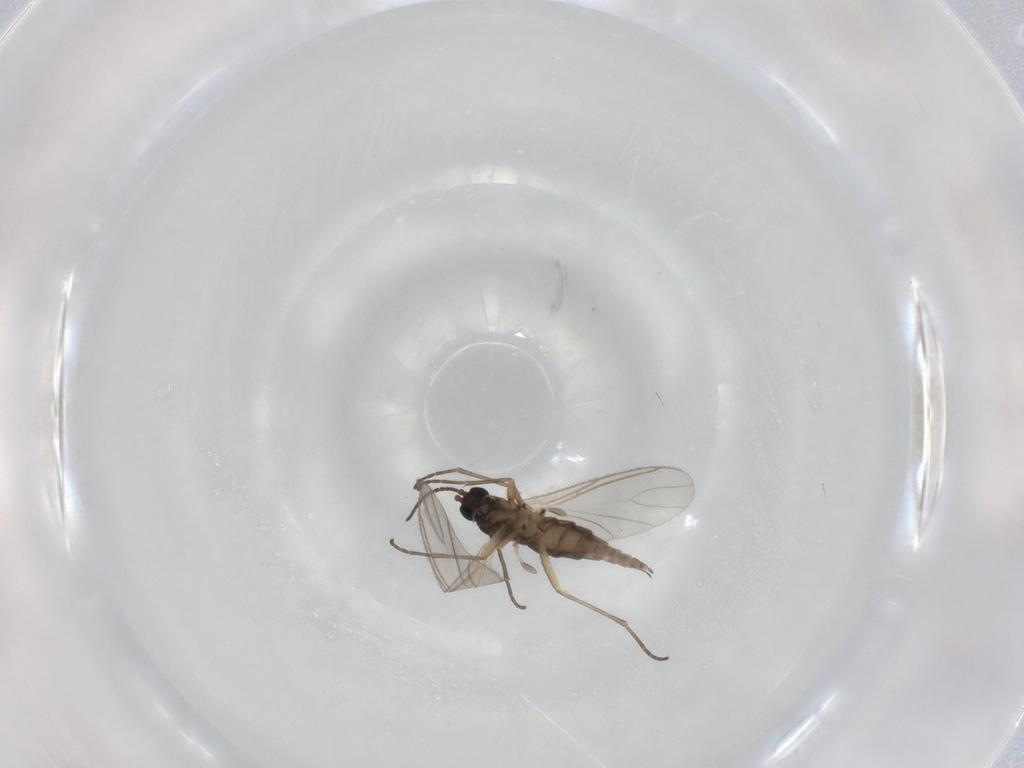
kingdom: Animalia
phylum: Arthropoda
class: Insecta
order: Diptera
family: Sciaridae
